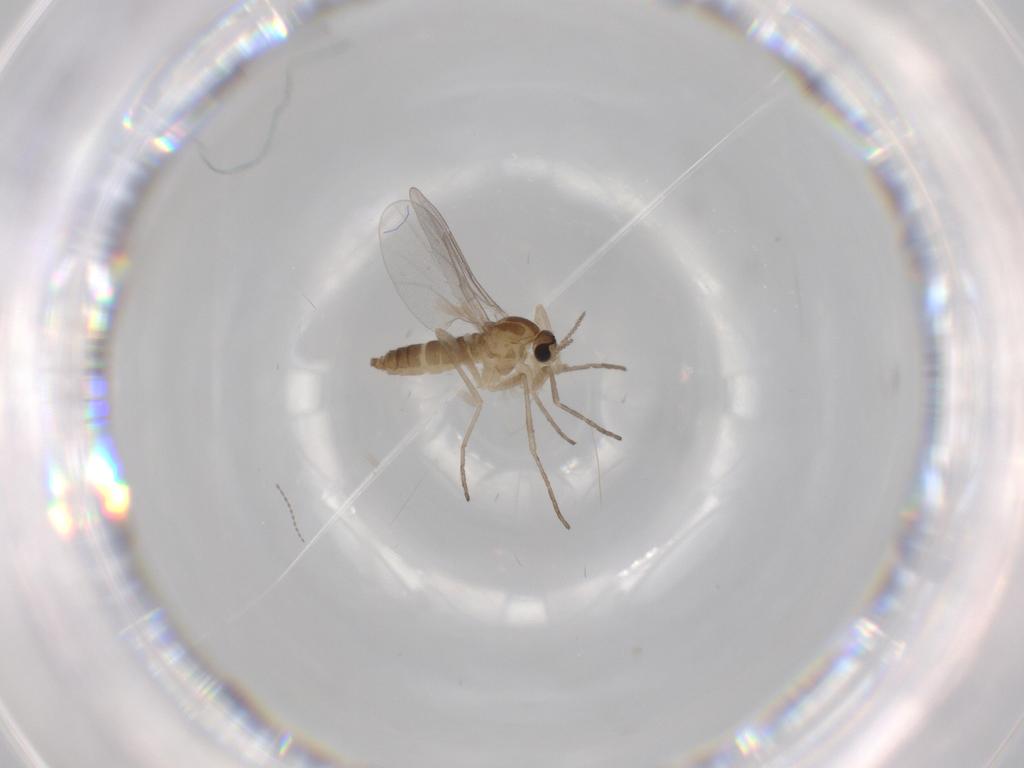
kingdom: Animalia
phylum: Arthropoda
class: Insecta
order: Diptera
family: Cecidomyiidae
